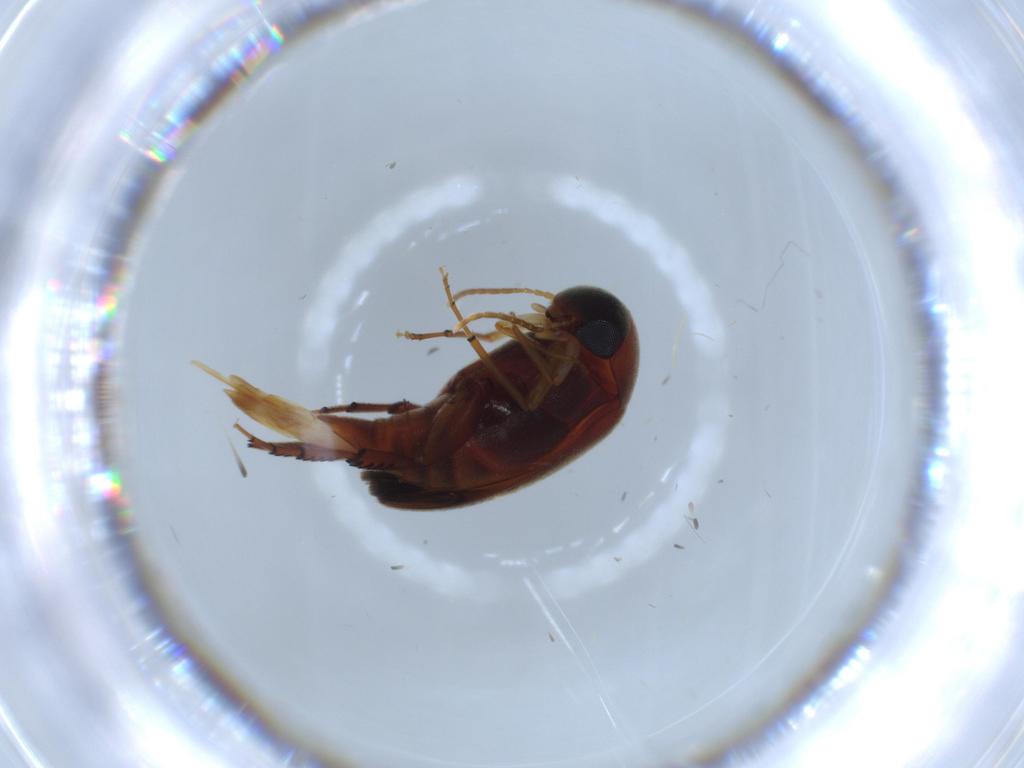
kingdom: Animalia
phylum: Arthropoda
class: Insecta
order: Coleoptera
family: Mordellidae
